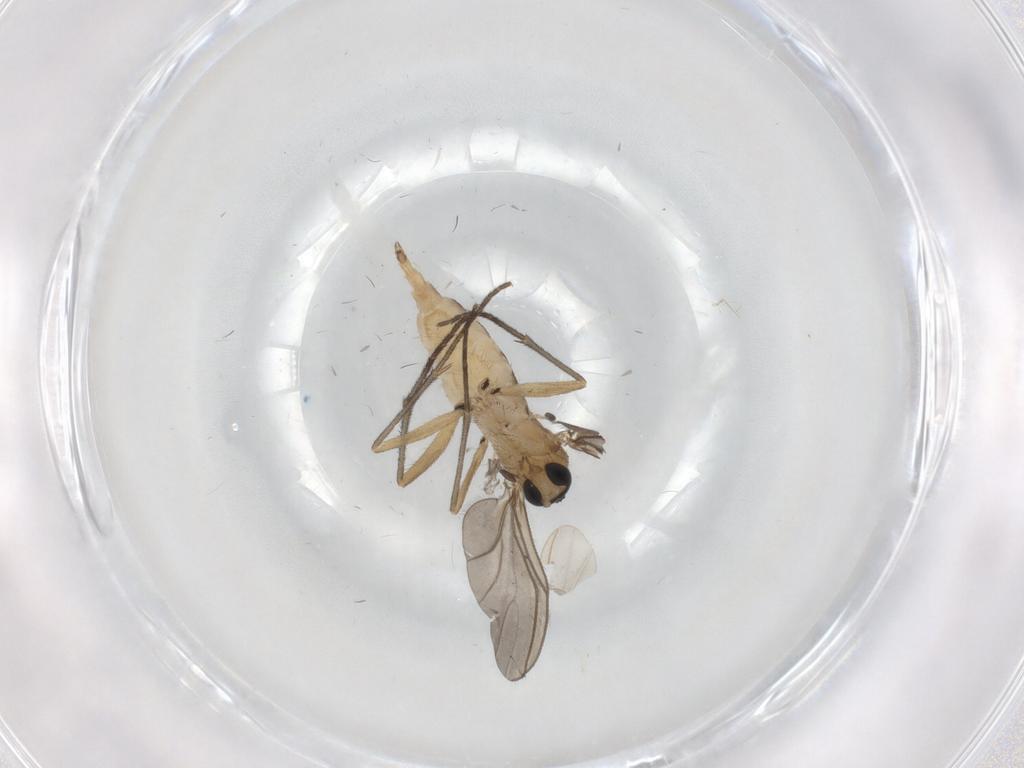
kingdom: Animalia
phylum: Arthropoda
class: Insecta
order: Diptera
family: Sciaridae
